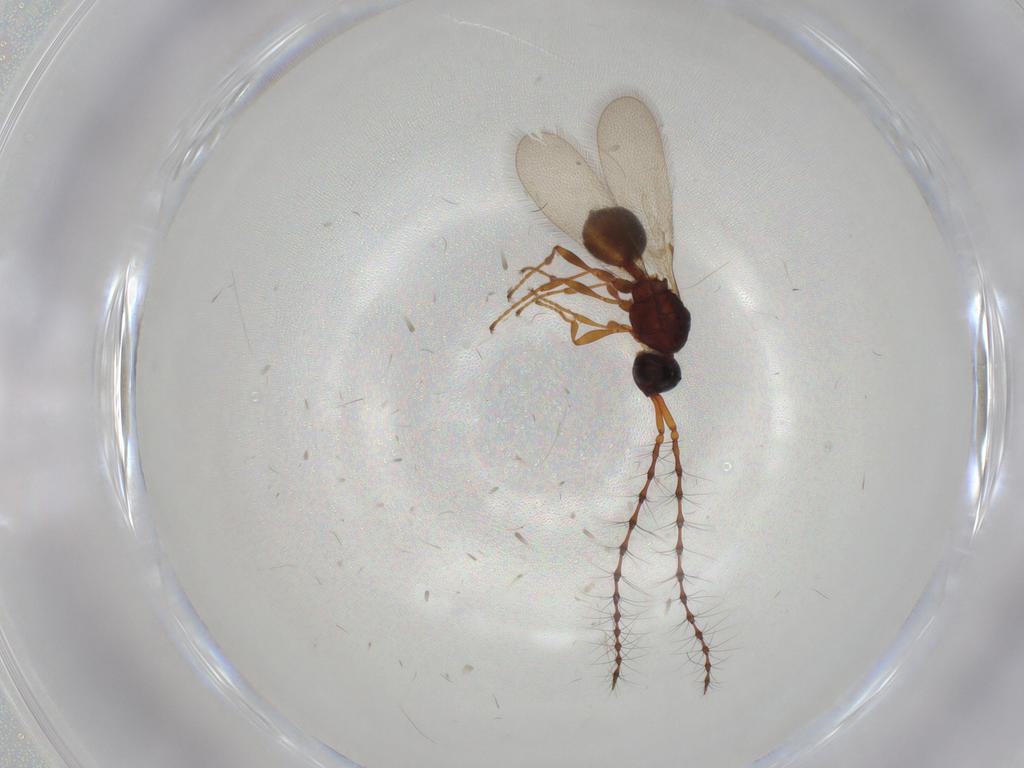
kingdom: Animalia
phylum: Arthropoda
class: Insecta
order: Hymenoptera
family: Diapriidae
